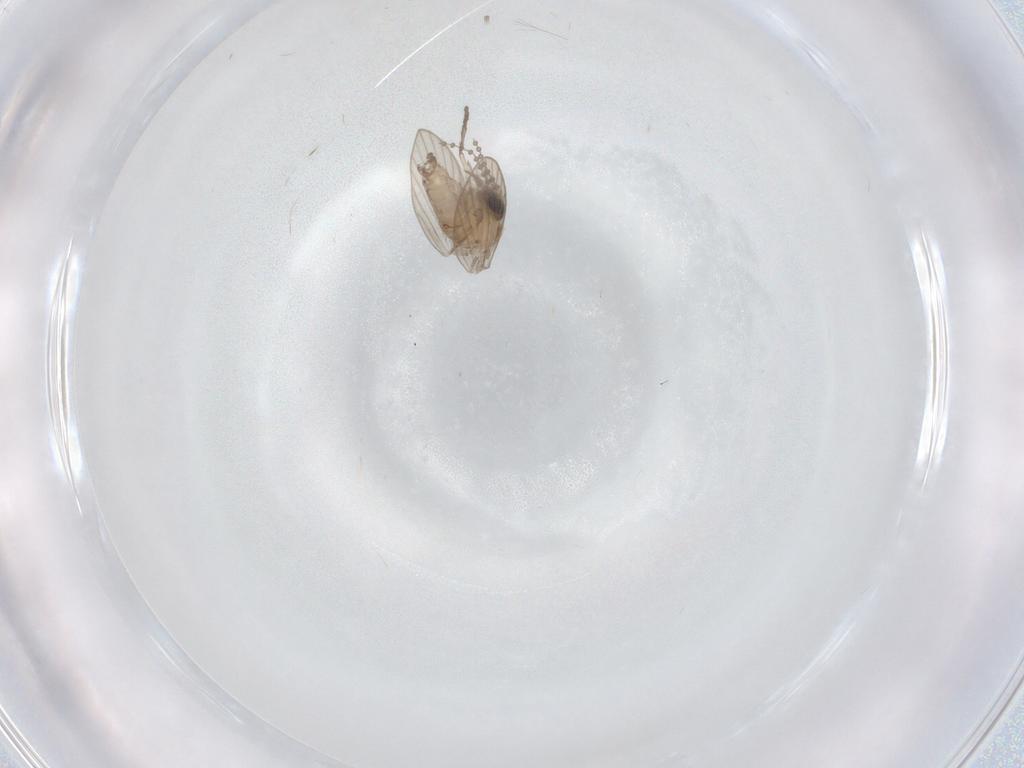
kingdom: Animalia
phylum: Arthropoda
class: Insecta
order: Diptera
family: Psychodidae
